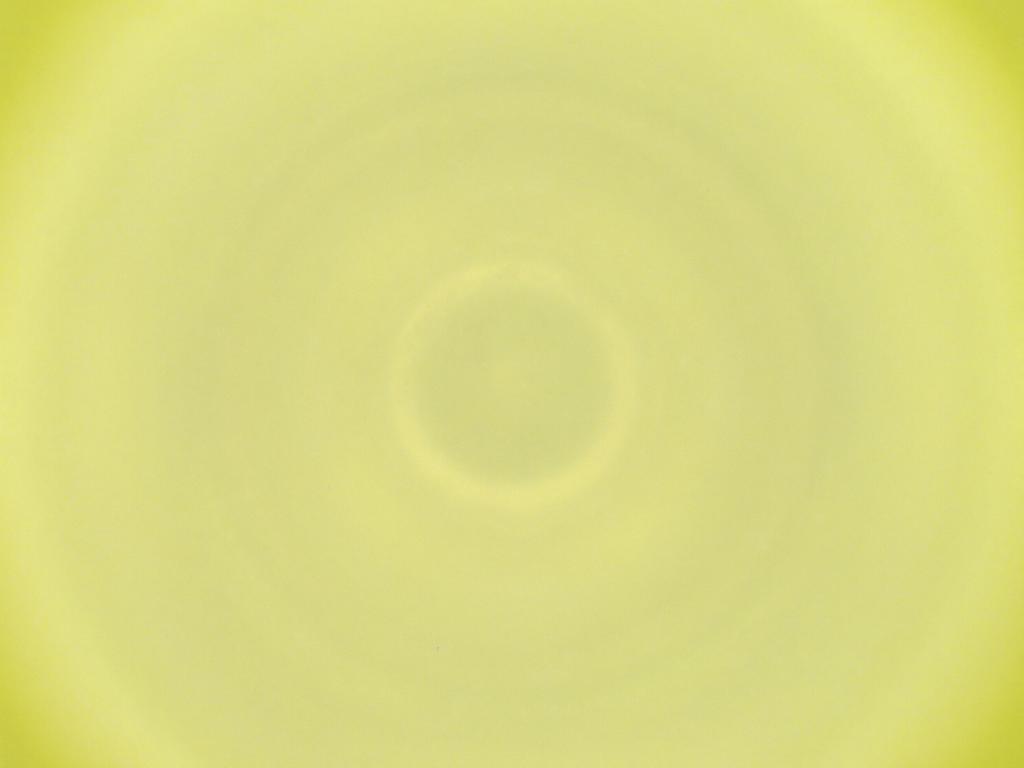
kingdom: Animalia
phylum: Arthropoda
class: Insecta
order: Diptera
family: Cecidomyiidae
